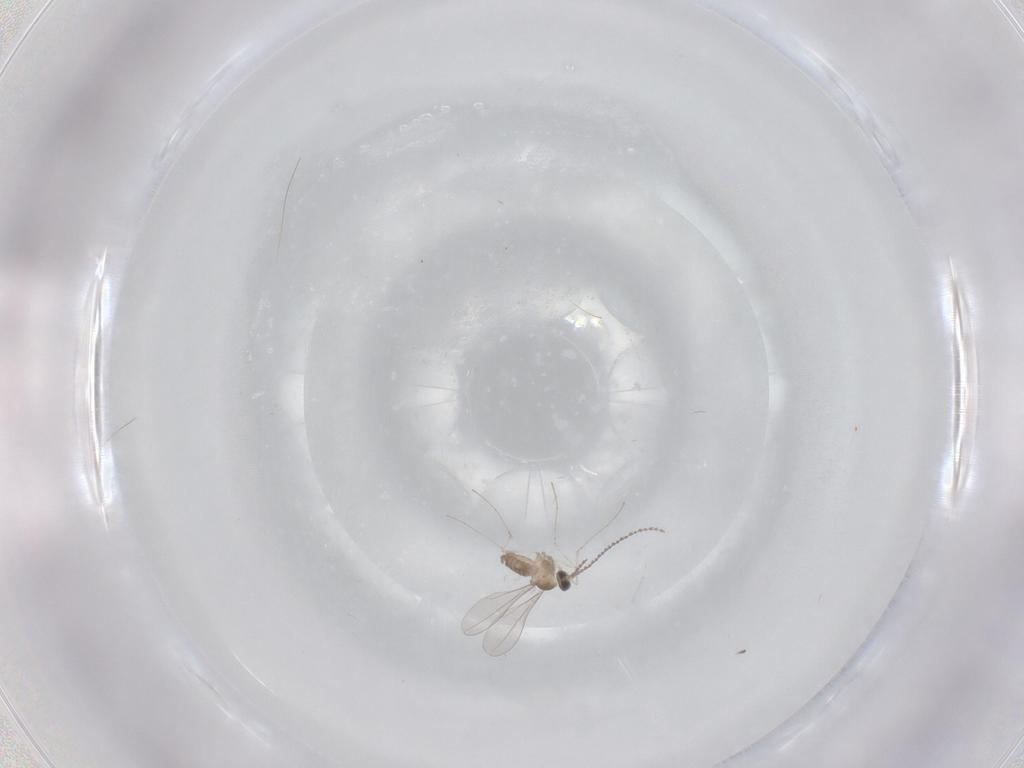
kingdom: Animalia
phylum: Arthropoda
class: Insecta
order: Diptera
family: Cecidomyiidae
